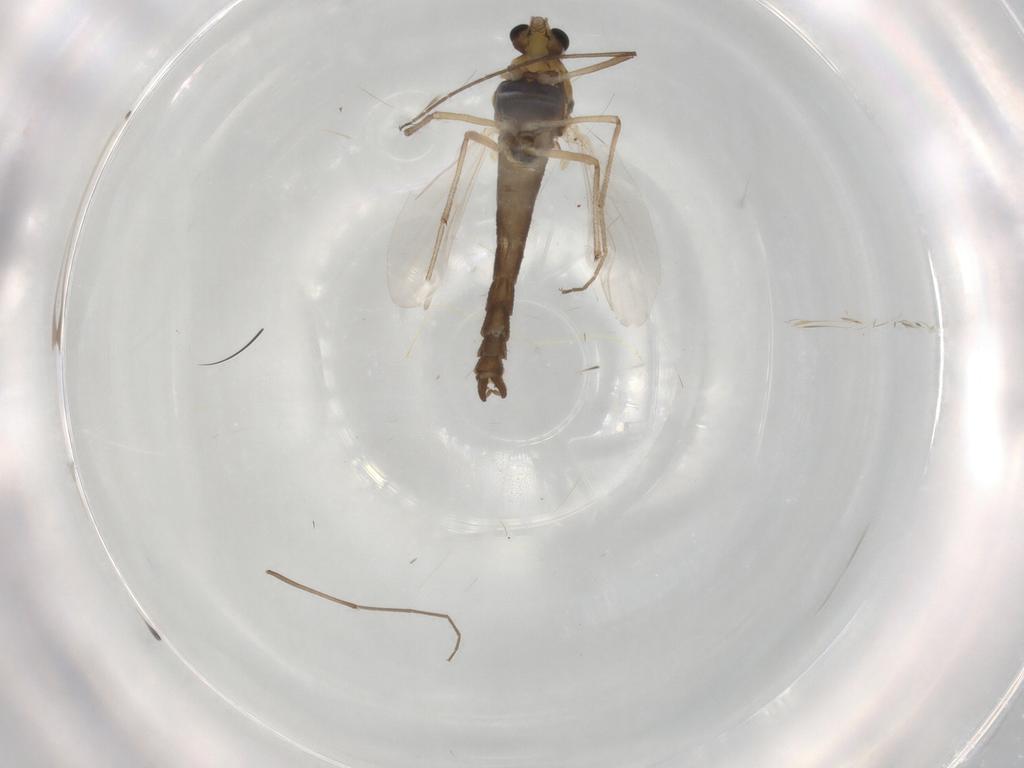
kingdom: Animalia
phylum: Arthropoda
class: Insecta
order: Diptera
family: Chironomidae
